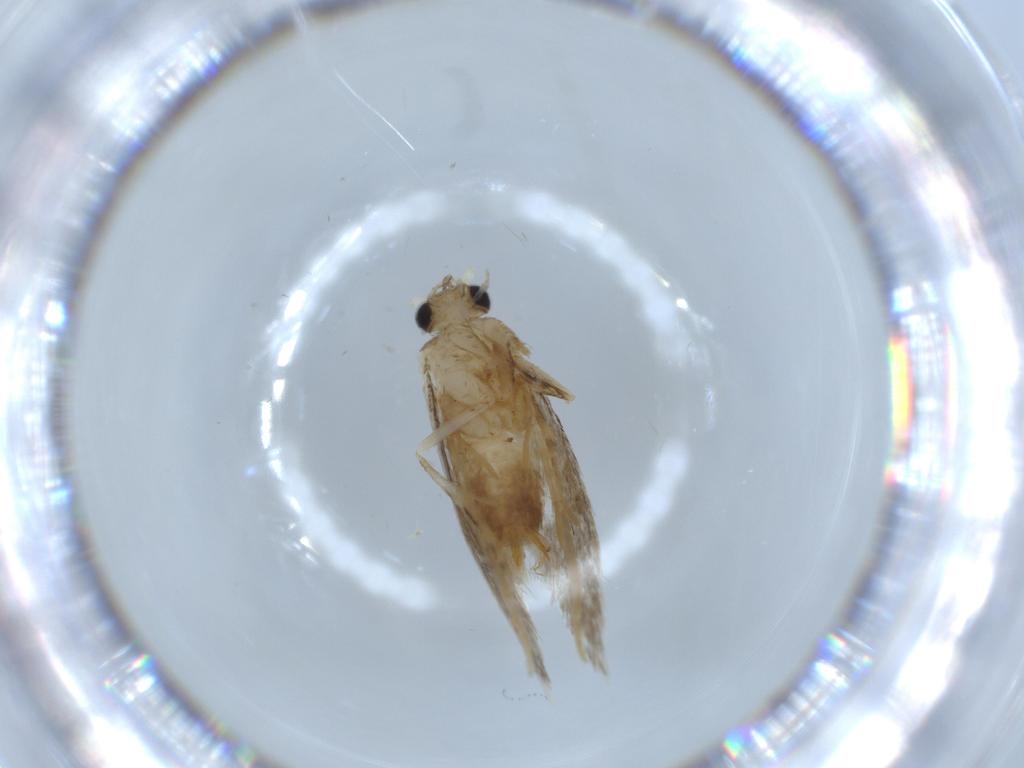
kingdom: Animalia
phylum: Arthropoda
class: Insecta
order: Lepidoptera
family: Tineidae
